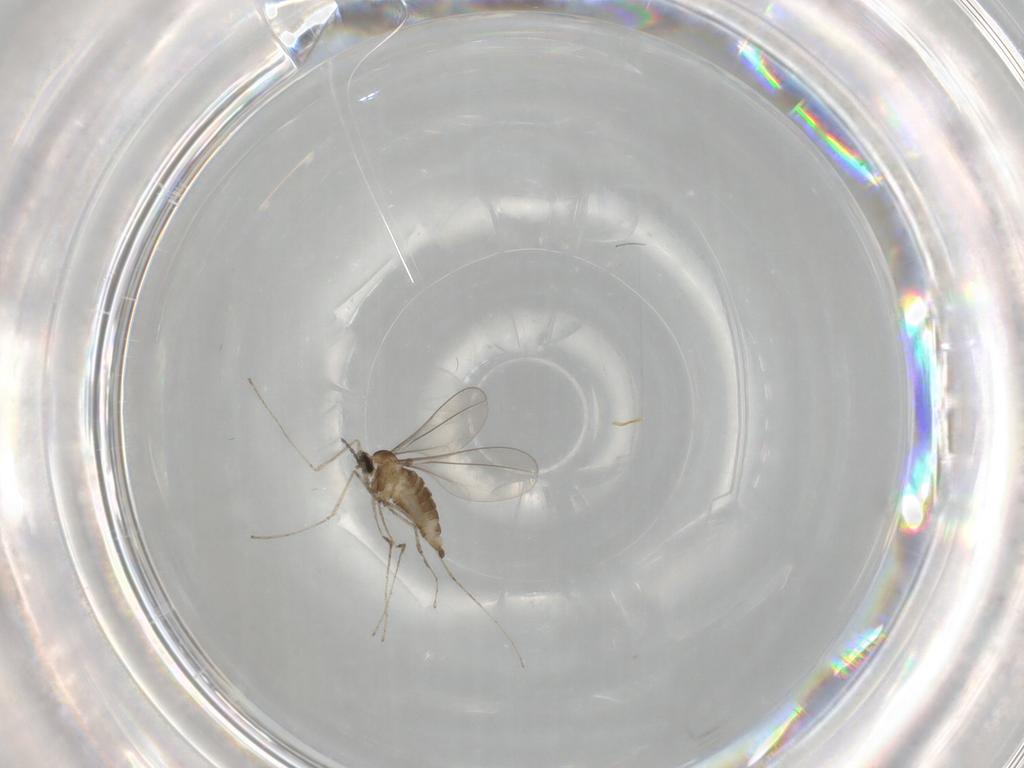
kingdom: Animalia
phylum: Arthropoda
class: Insecta
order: Diptera
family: Cecidomyiidae
